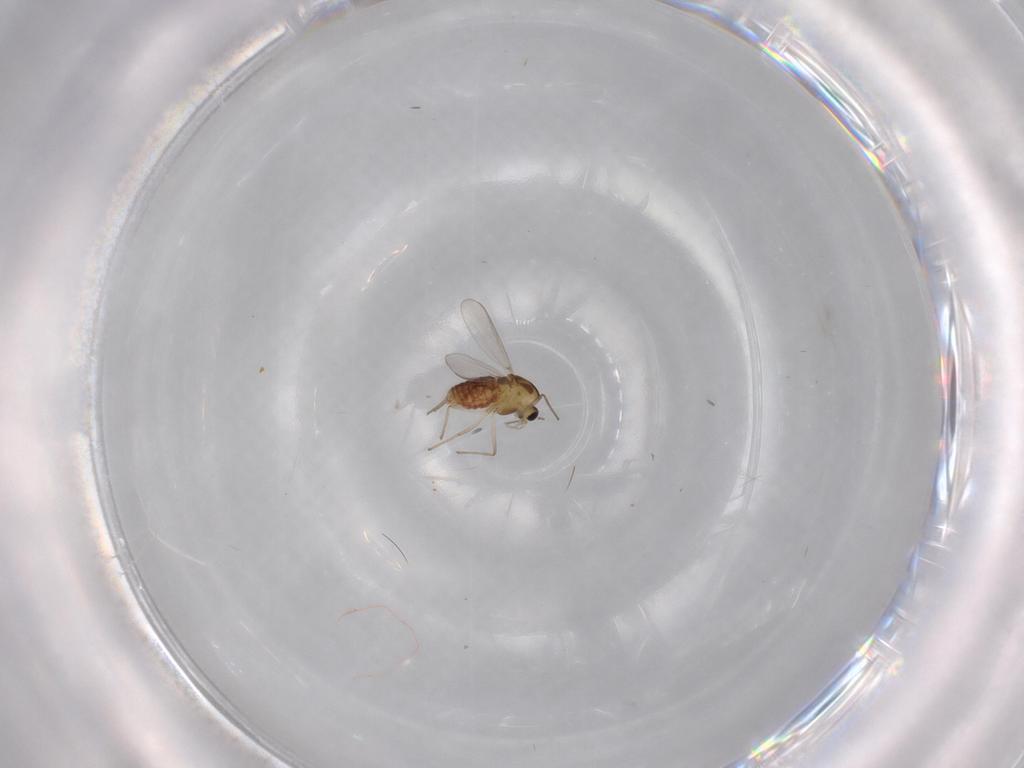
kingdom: Animalia
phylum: Arthropoda
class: Insecta
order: Diptera
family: Chironomidae
